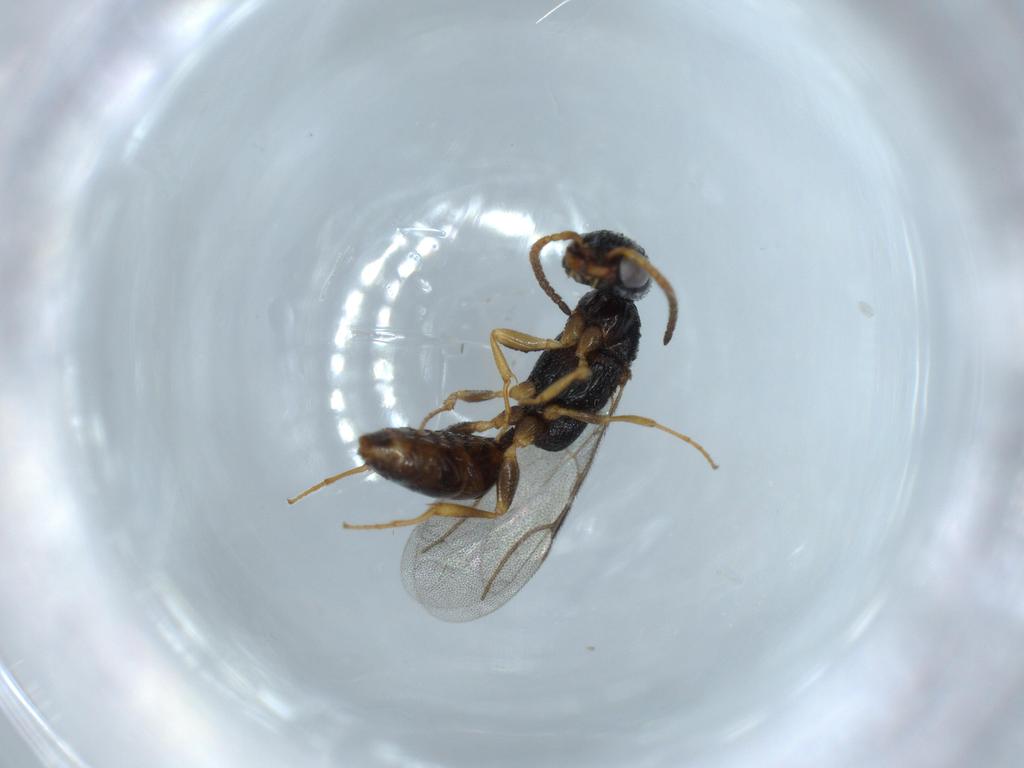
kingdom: Animalia
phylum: Arthropoda
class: Insecta
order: Hymenoptera
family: Bethylidae
